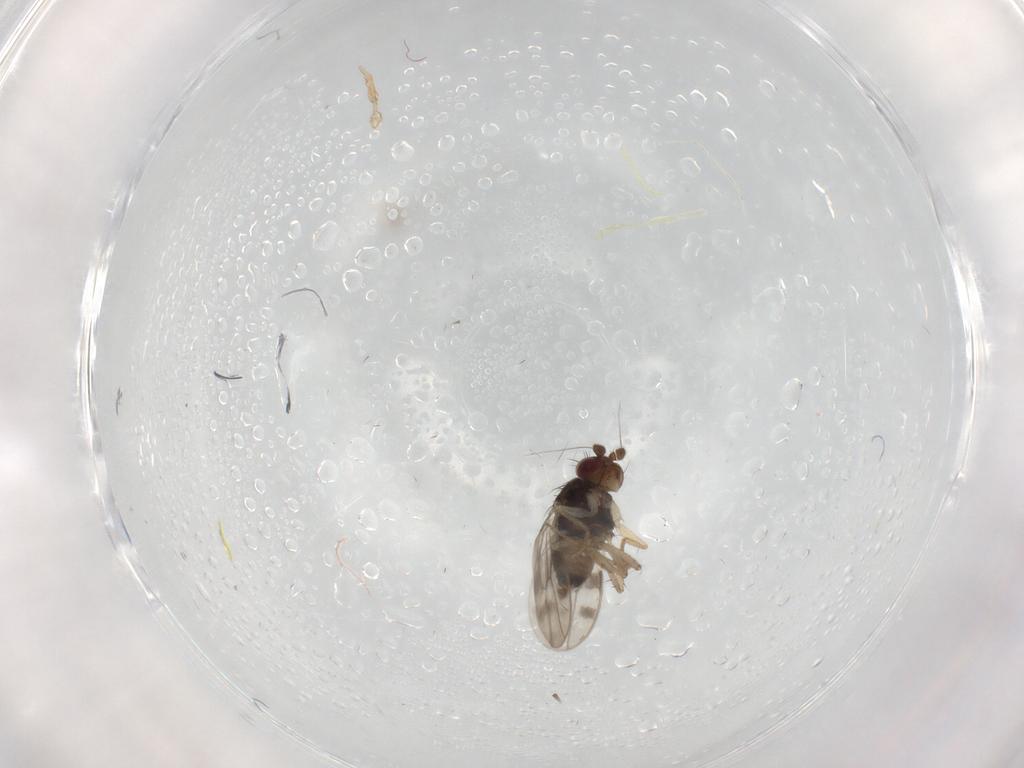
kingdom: Animalia
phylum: Arthropoda
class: Insecta
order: Diptera
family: Sphaeroceridae
